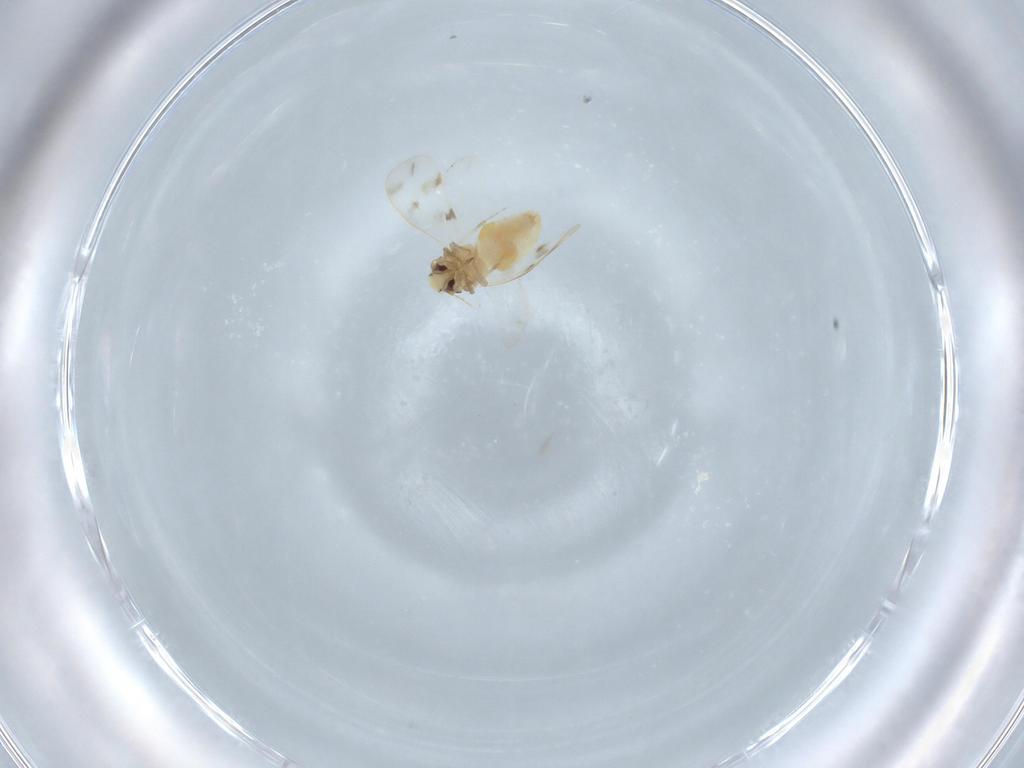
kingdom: Animalia
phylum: Arthropoda
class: Insecta
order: Hemiptera
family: Aleyrodidae
